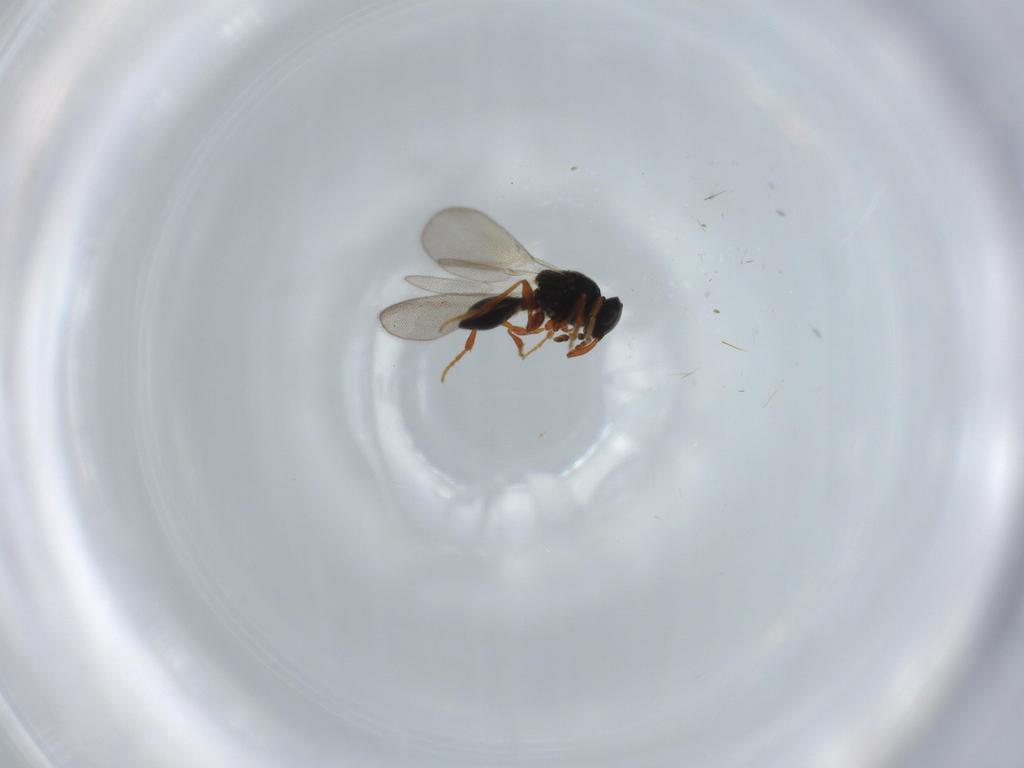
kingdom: Animalia
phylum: Arthropoda
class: Insecta
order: Hymenoptera
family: Platygastridae
